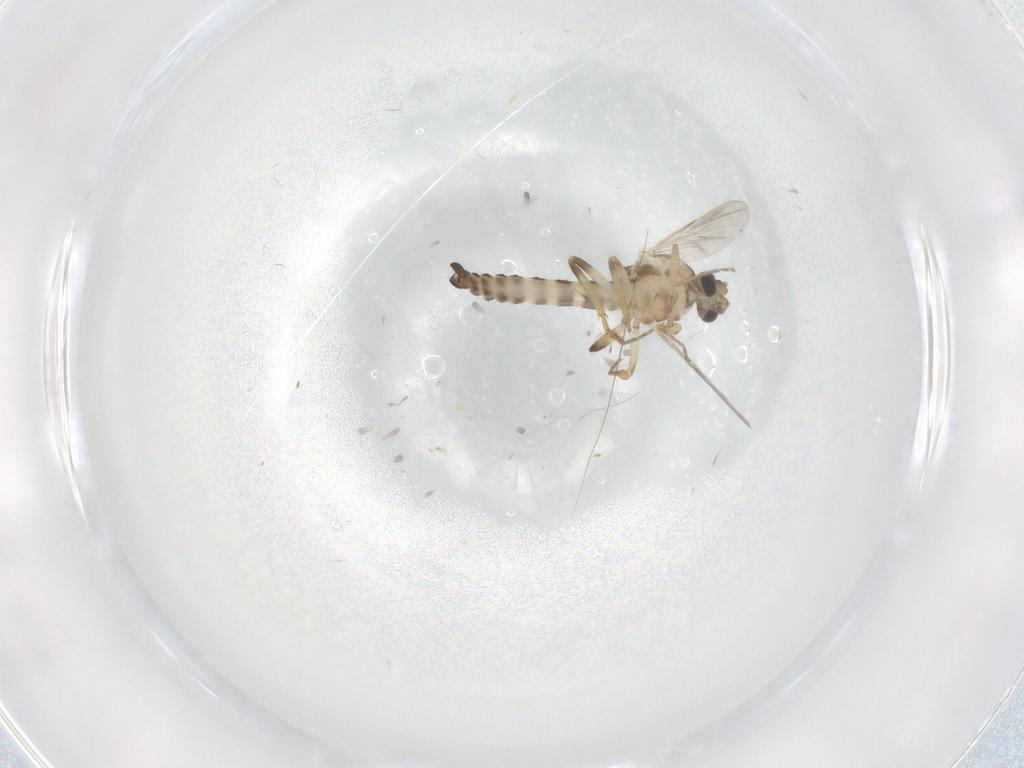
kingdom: Animalia
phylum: Arthropoda
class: Insecta
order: Diptera
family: Ceratopogonidae
